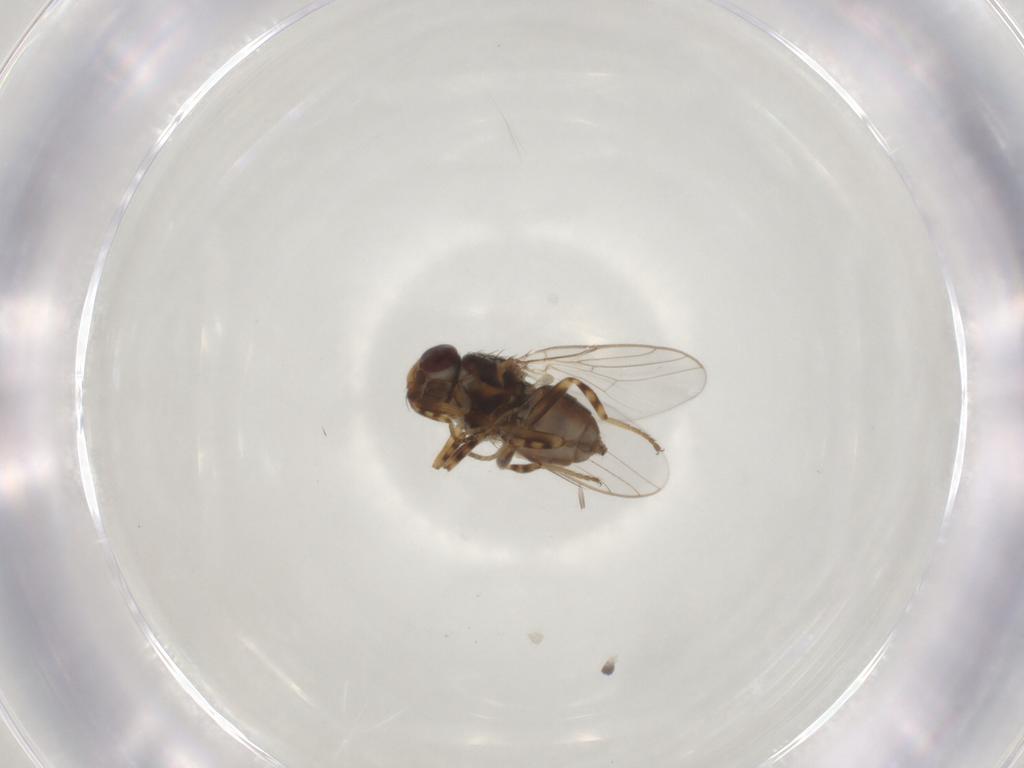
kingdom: Animalia
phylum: Arthropoda
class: Insecta
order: Diptera
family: Chloropidae
